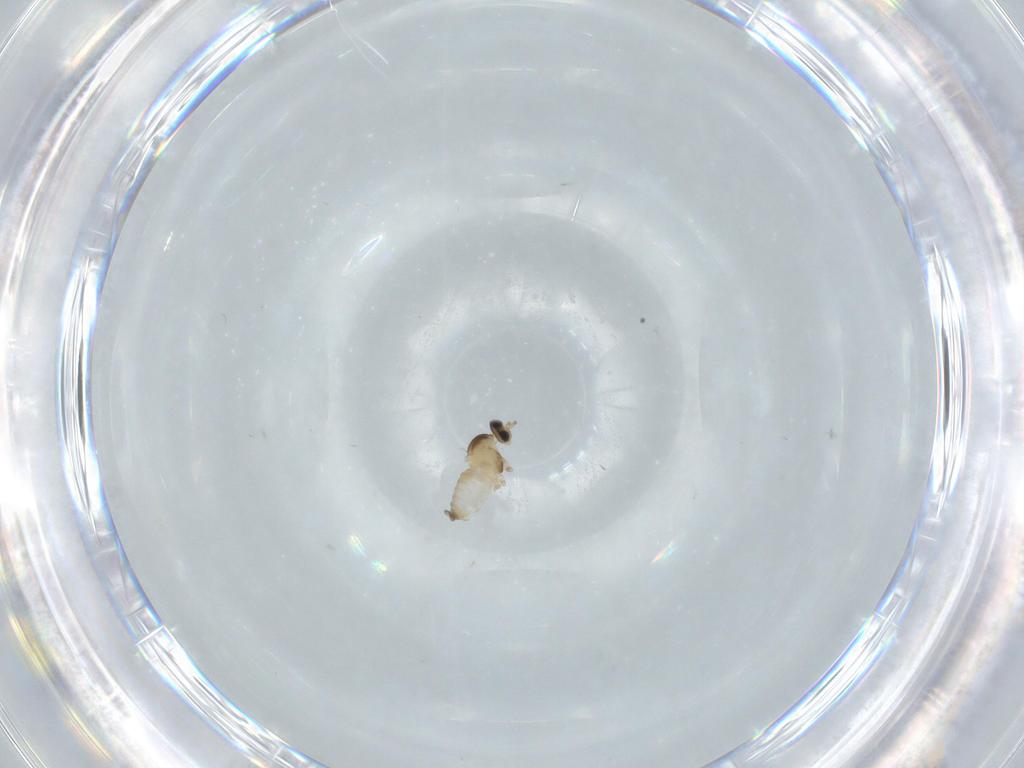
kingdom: Animalia
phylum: Arthropoda
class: Insecta
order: Diptera
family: Cecidomyiidae
